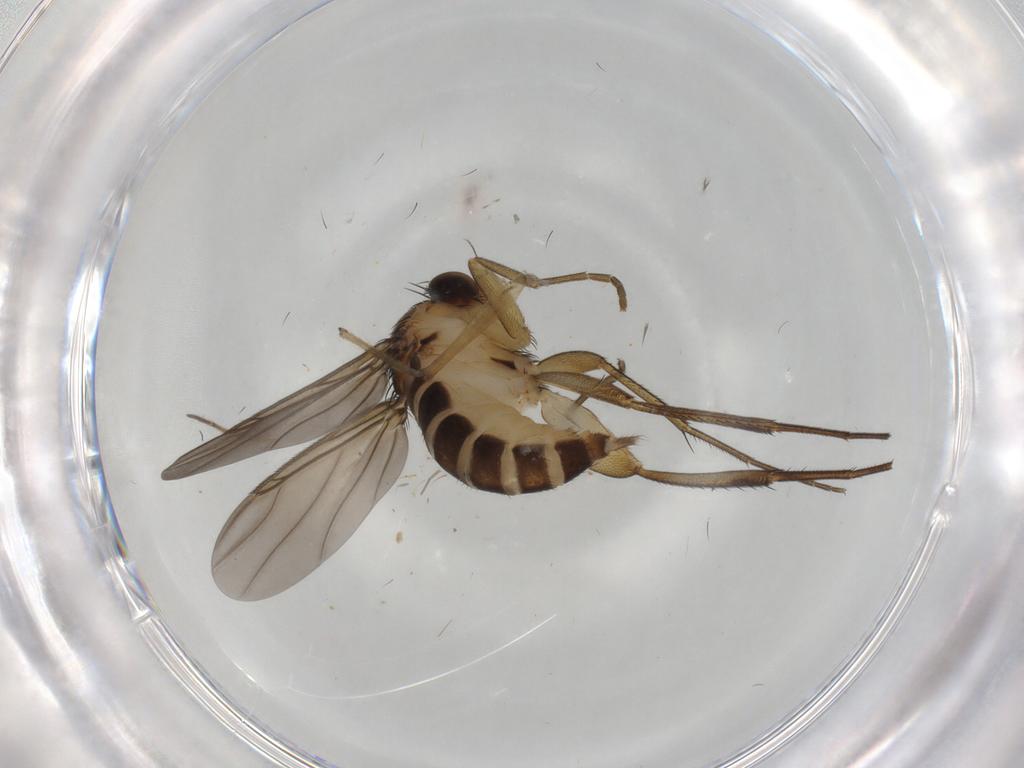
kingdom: Animalia
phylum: Arthropoda
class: Insecta
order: Diptera
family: Phoridae
